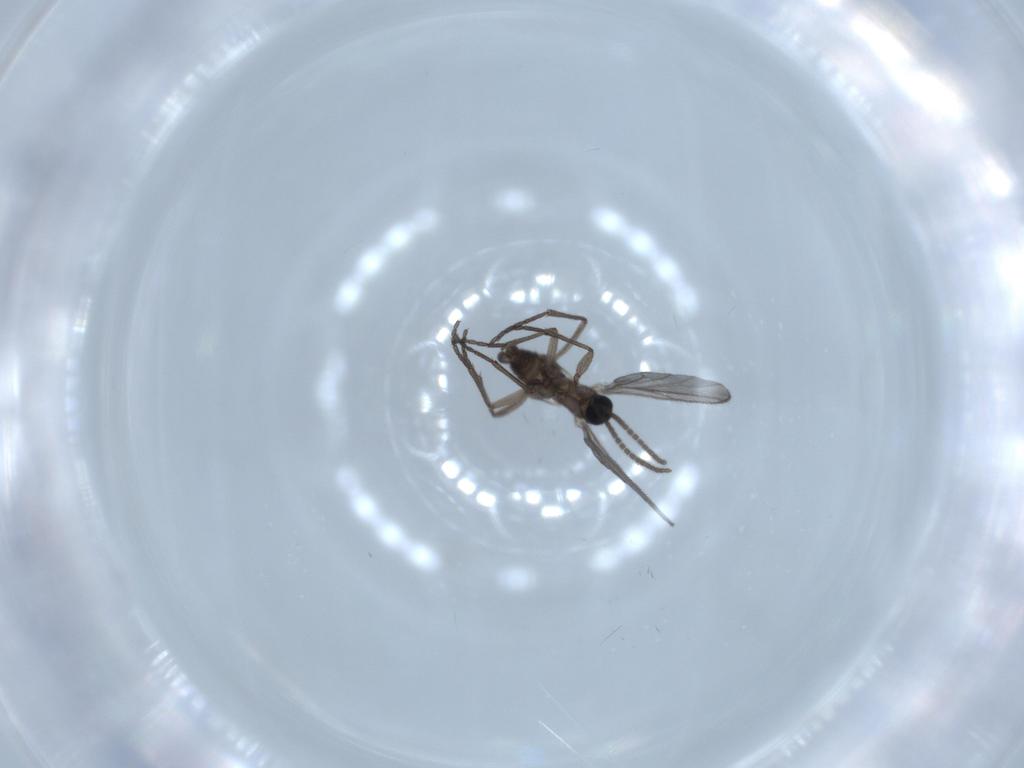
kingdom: Animalia
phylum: Arthropoda
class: Insecta
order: Diptera
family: Sciaridae
